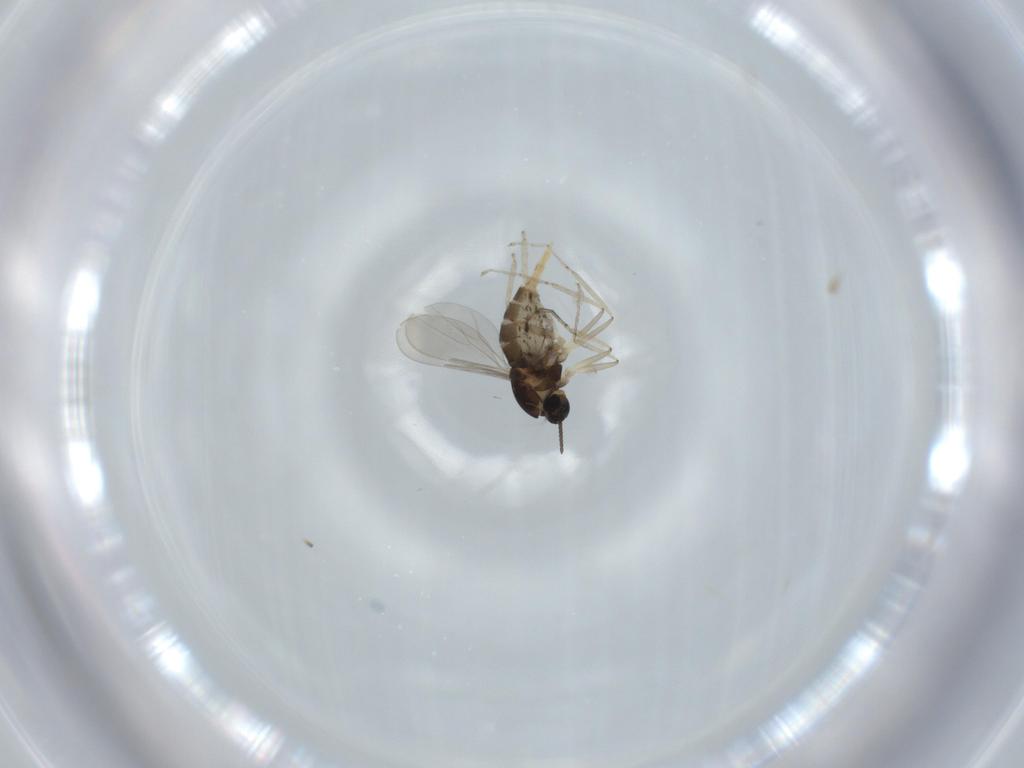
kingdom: Animalia
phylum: Arthropoda
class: Insecta
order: Diptera
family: Cecidomyiidae
